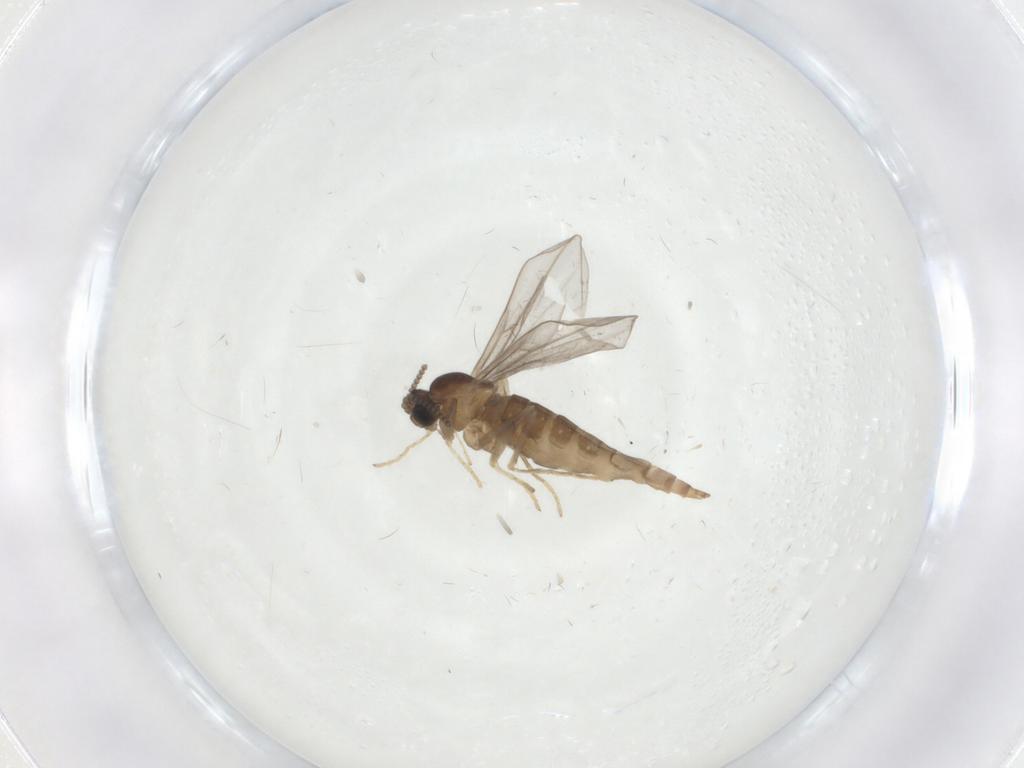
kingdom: Animalia
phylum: Arthropoda
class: Insecta
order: Diptera
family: Cecidomyiidae
